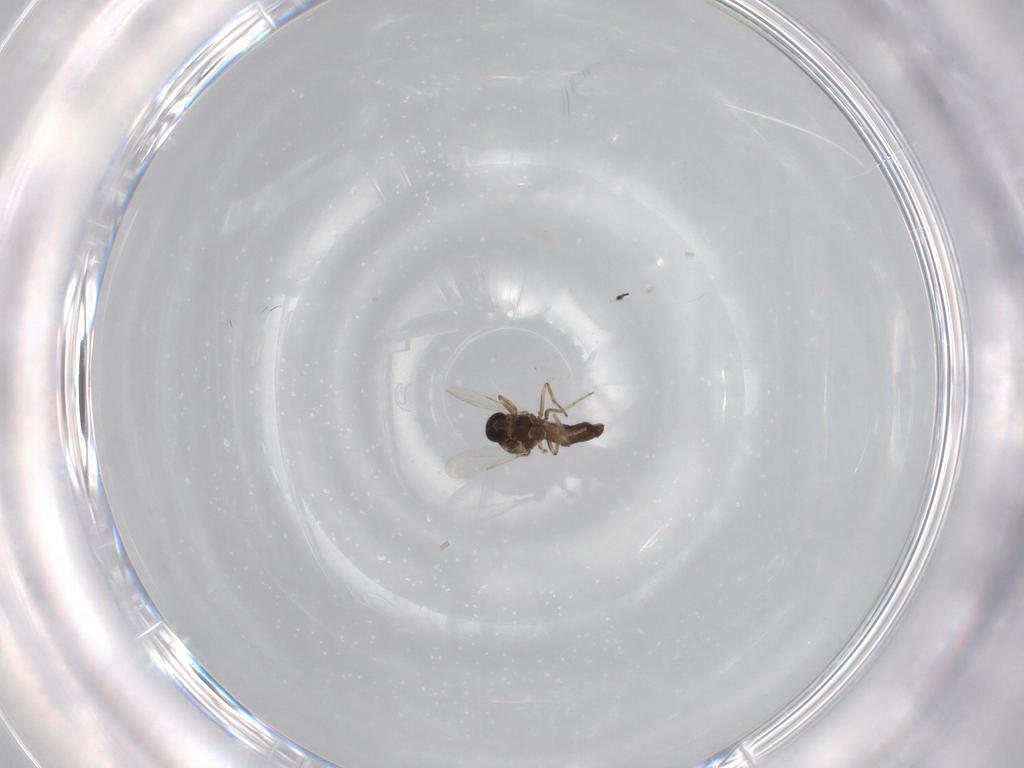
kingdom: Animalia
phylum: Arthropoda
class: Insecta
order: Diptera
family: Ceratopogonidae
